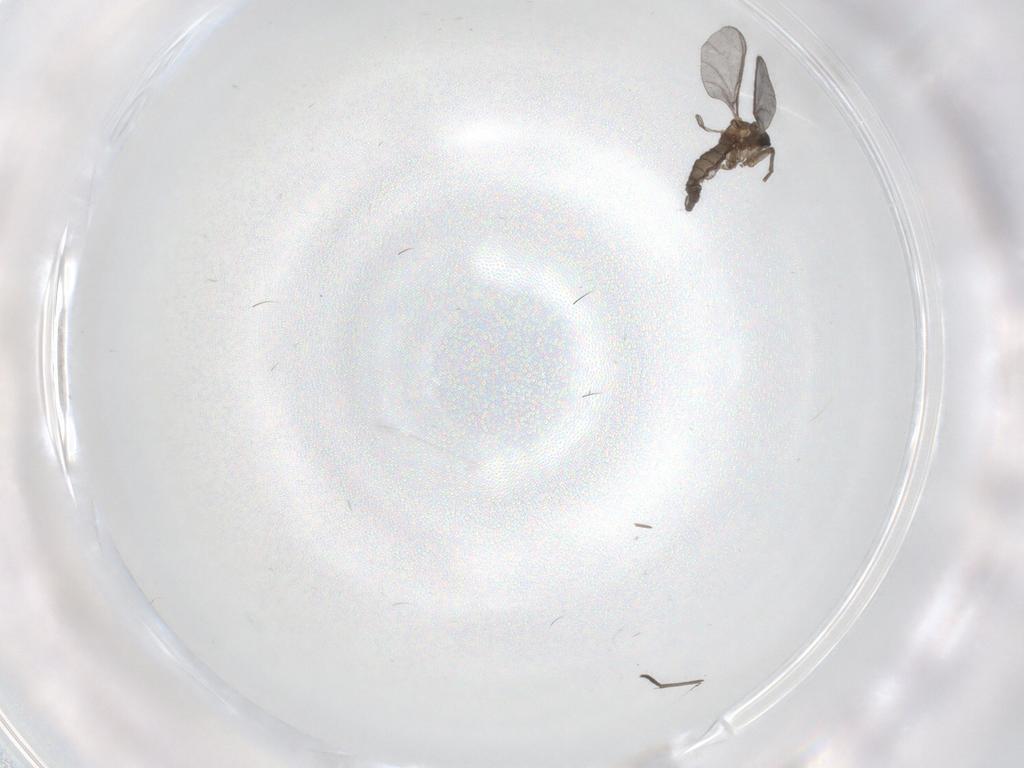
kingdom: Animalia
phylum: Arthropoda
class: Insecta
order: Diptera
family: Sciaridae
